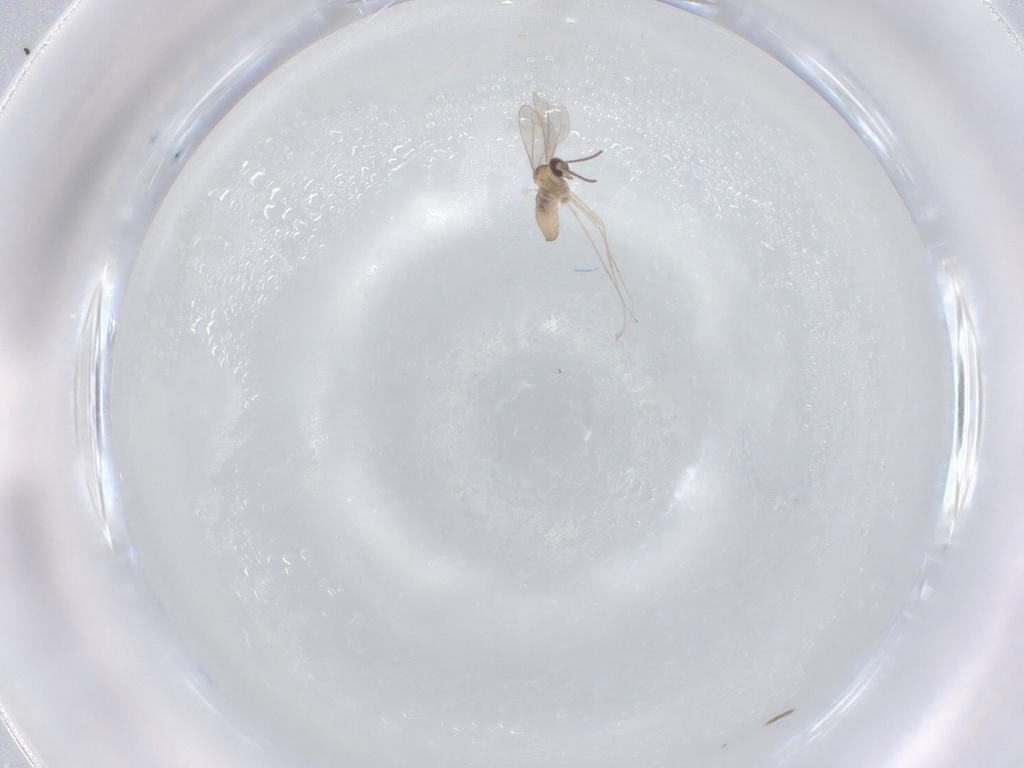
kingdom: Animalia
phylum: Arthropoda
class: Insecta
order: Diptera
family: Cecidomyiidae
